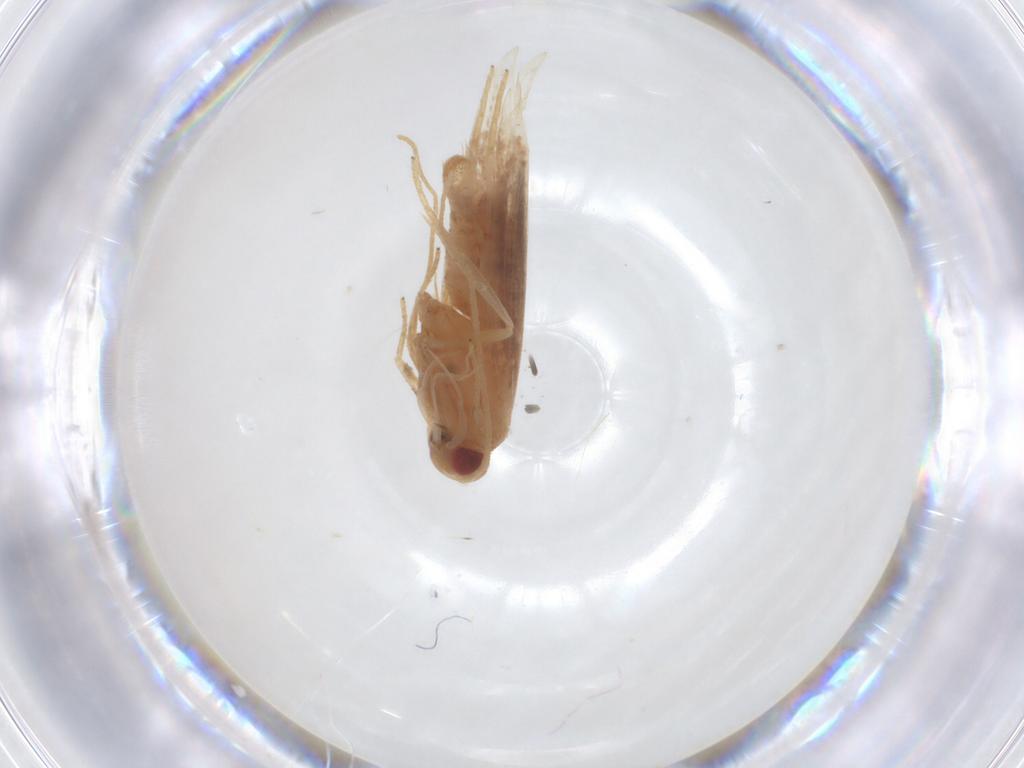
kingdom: Animalia
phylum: Arthropoda
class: Insecta
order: Lepidoptera
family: Cosmopterigidae
